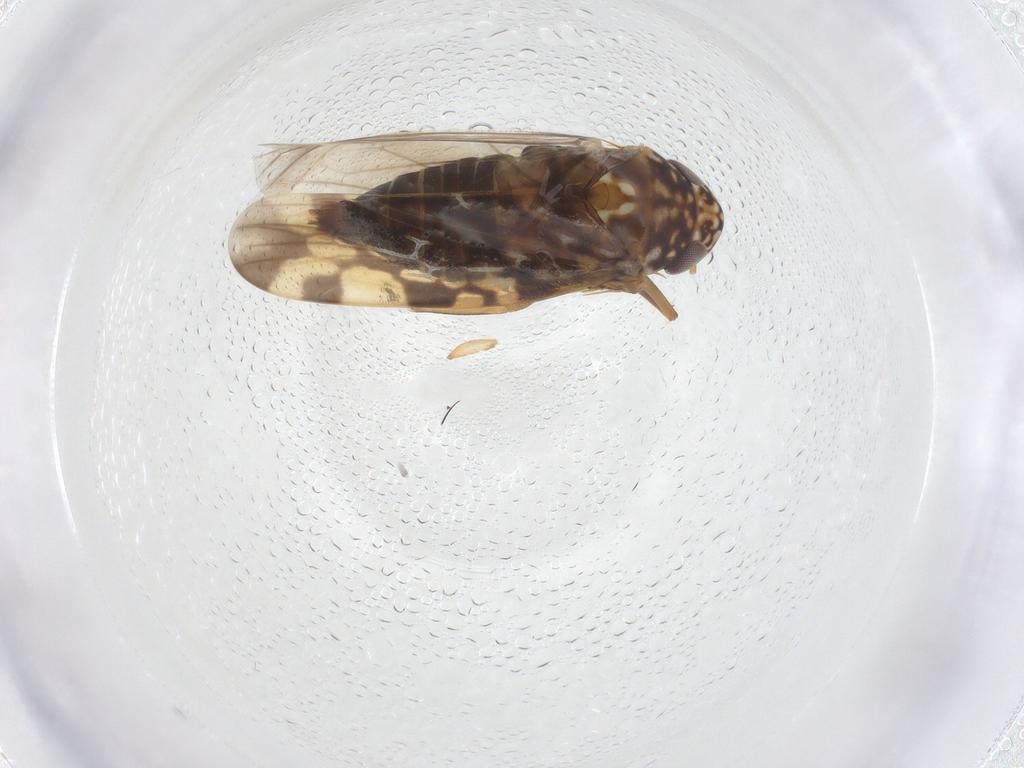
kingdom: Animalia
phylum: Arthropoda
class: Insecta
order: Hemiptera
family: Cicadellidae
